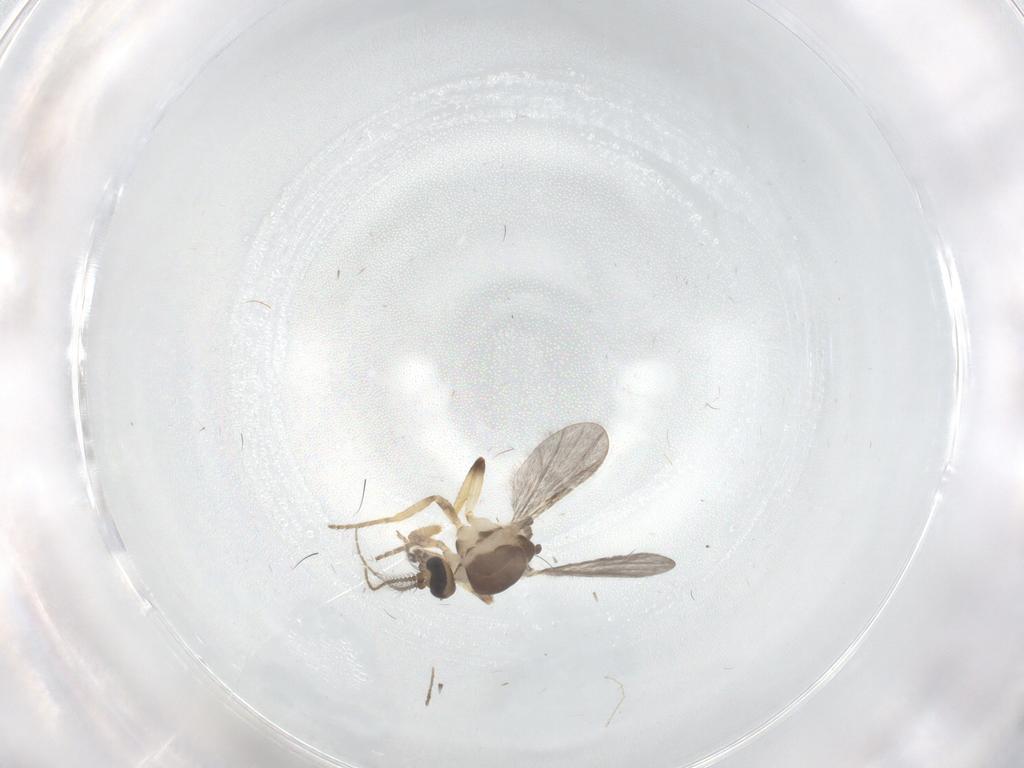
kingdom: Animalia
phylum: Arthropoda
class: Insecta
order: Diptera
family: Ceratopogonidae
